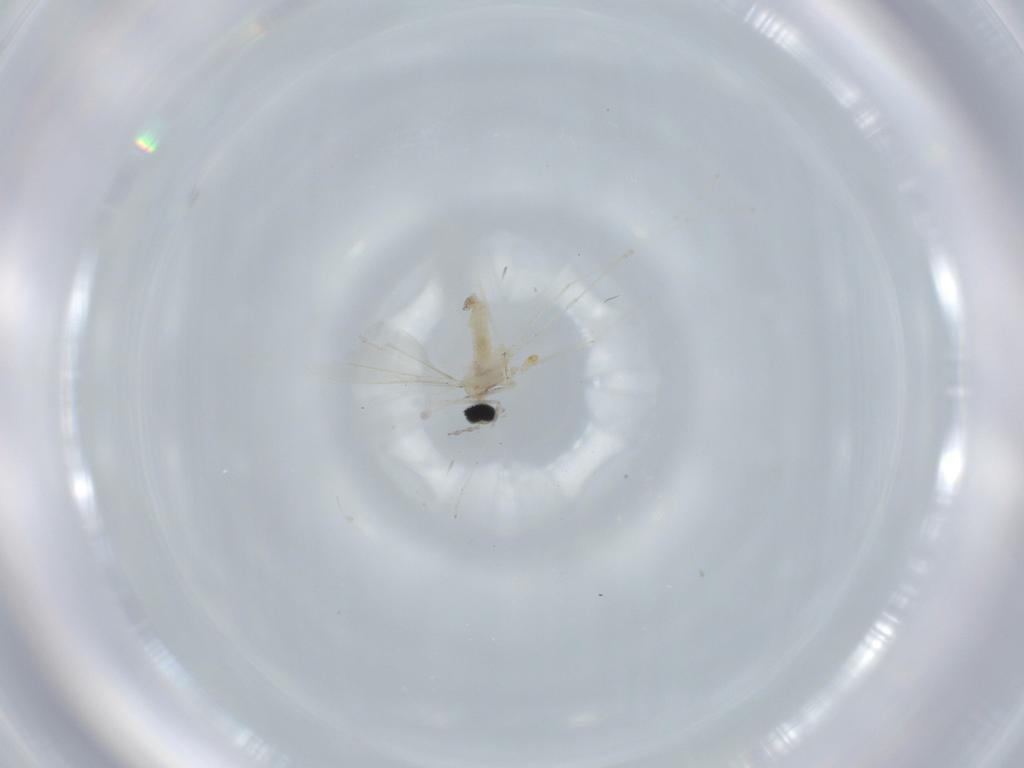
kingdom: Animalia
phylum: Arthropoda
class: Insecta
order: Diptera
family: Cecidomyiidae
